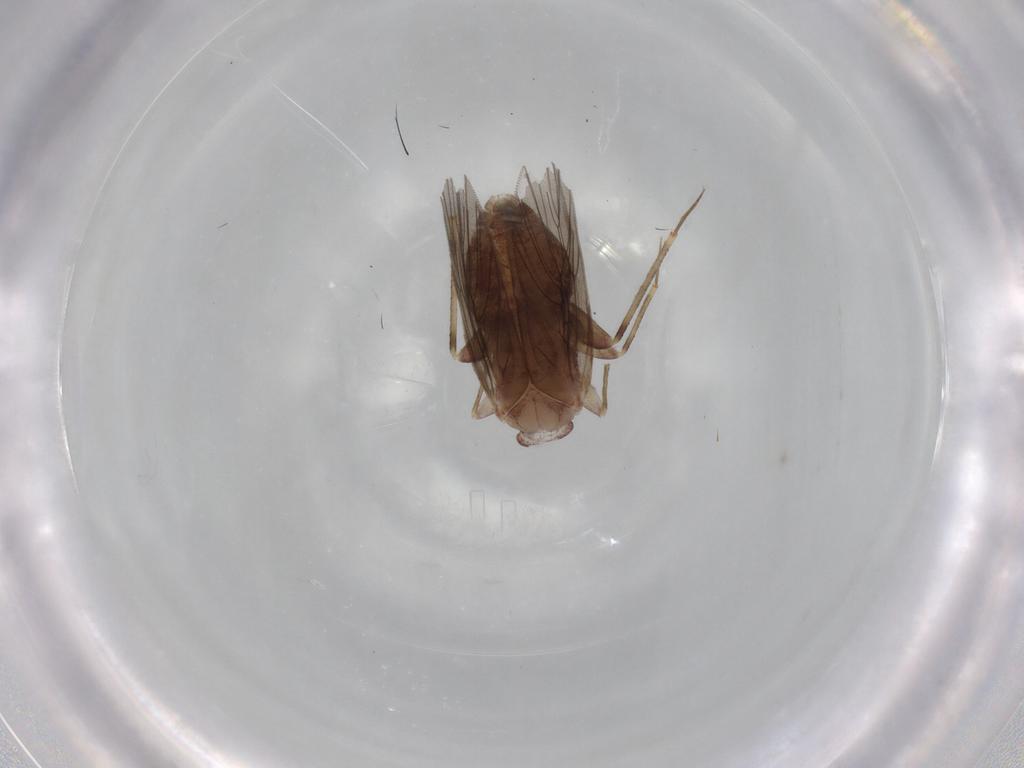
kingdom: Animalia
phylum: Arthropoda
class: Insecta
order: Psocodea
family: Lepidopsocidae
